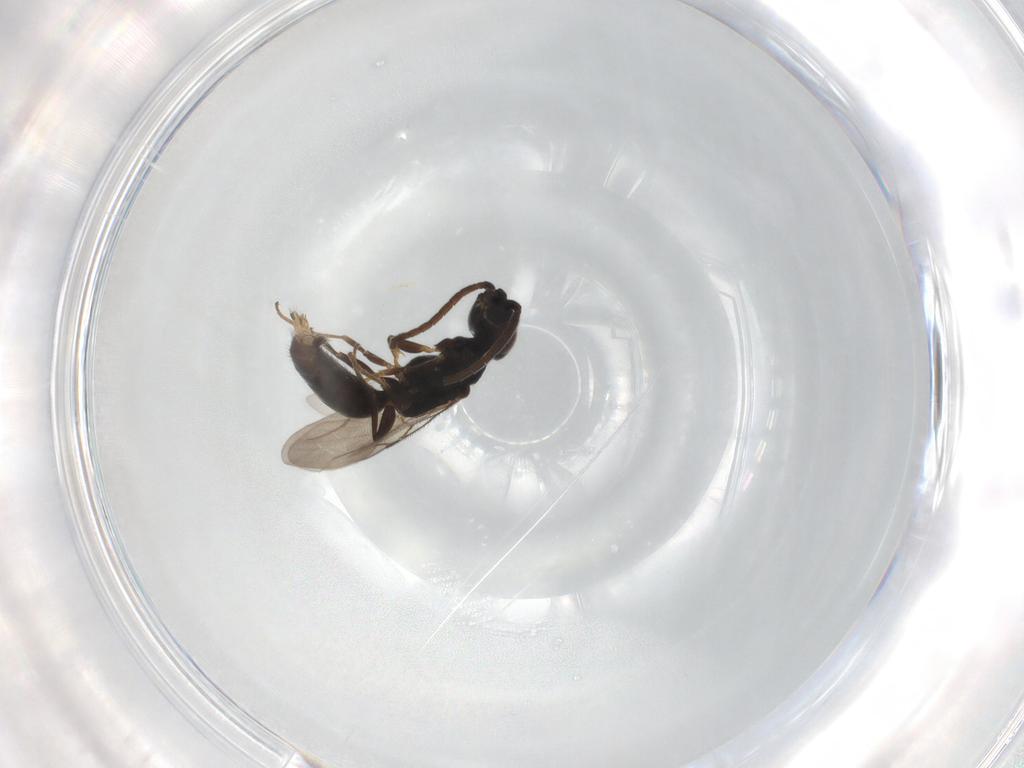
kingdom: Animalia
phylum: Arthropoda
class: Insecta
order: Hymenoptera
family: Bethylidae
